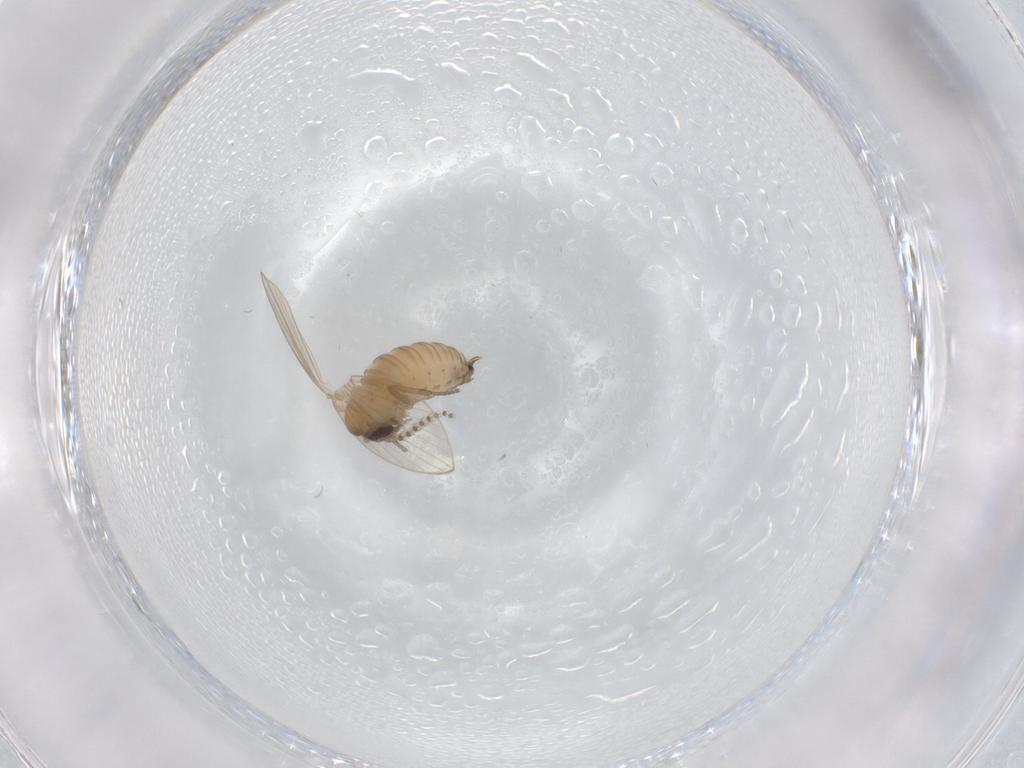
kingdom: Animalia
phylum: Arthropoda
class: Insecta
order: Diptera
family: Psychodidae
